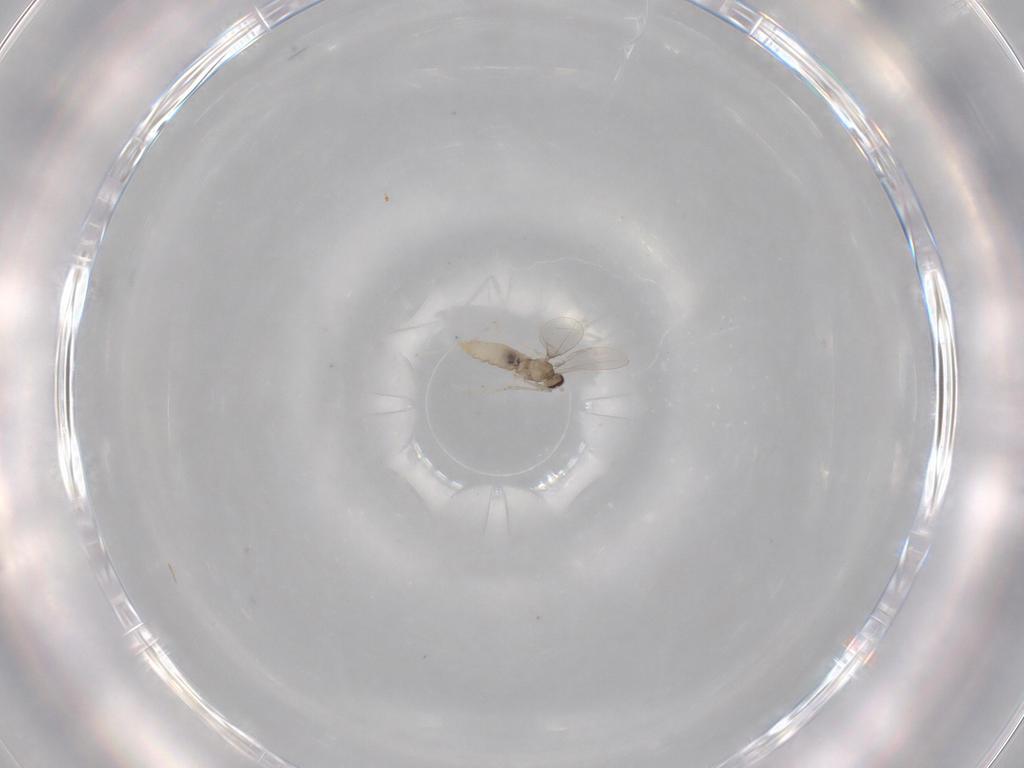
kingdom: Animalia
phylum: Arthropoda
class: Insecta
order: Diptera
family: Cecidomyiidae
